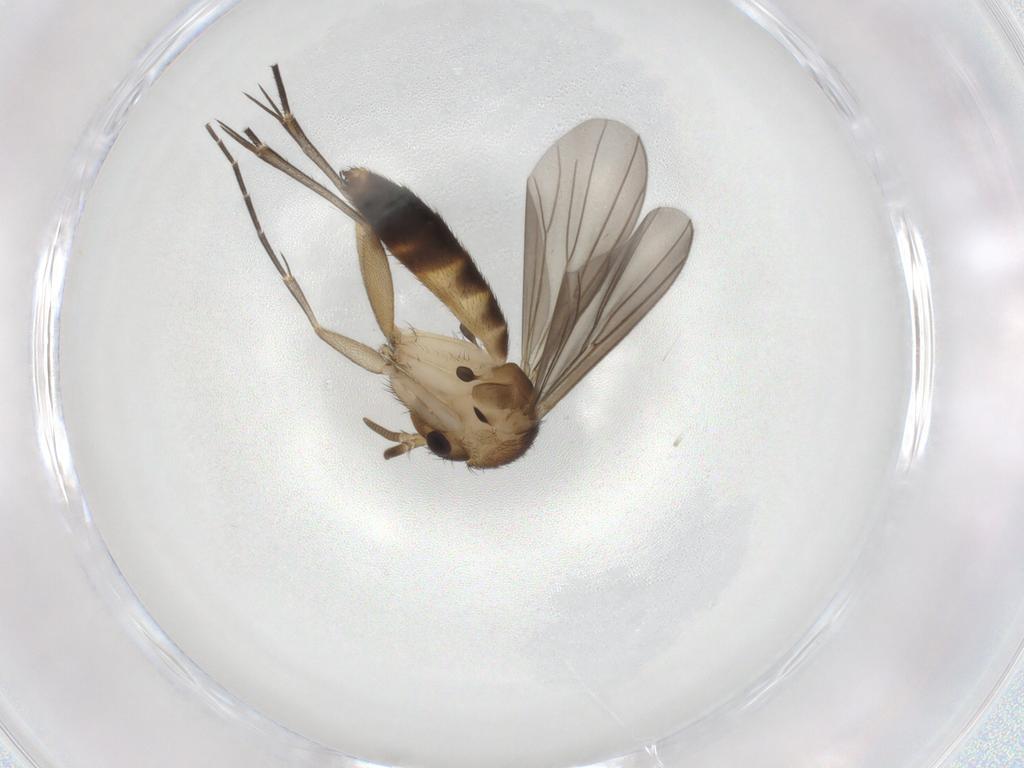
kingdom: Animalia
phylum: Arthropoda
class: Insecta
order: Diptera
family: Mycetophilidae
